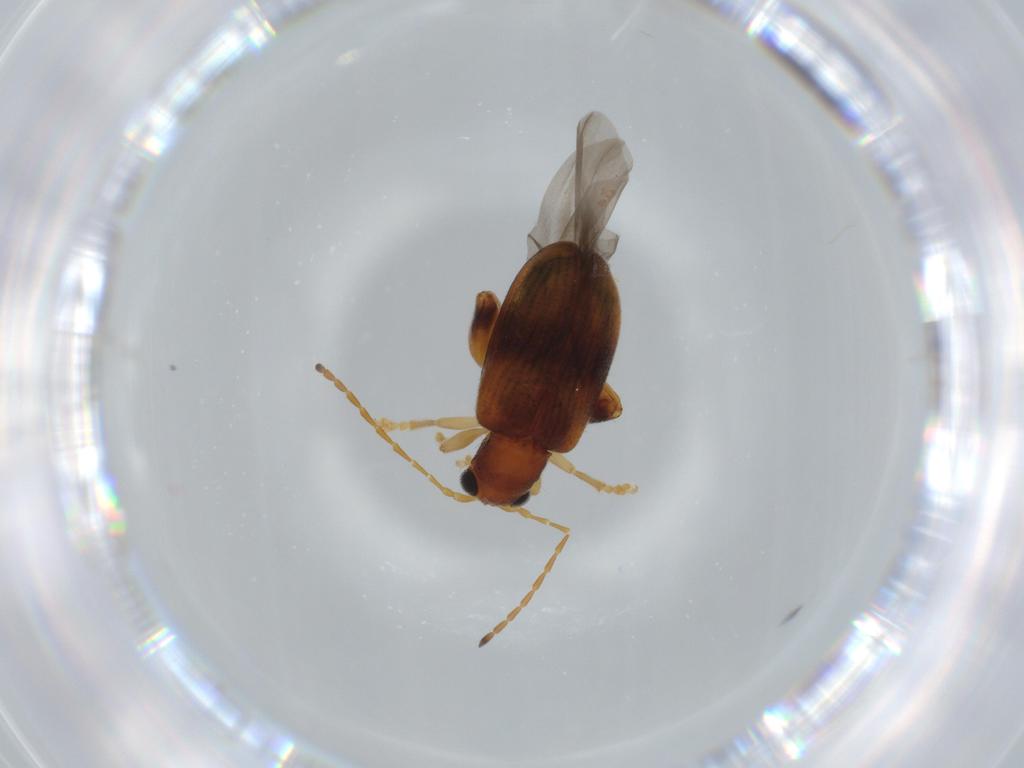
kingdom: Animalia
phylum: Arthropoda
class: Insecta
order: Coleoptera
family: Chrysomelidae
